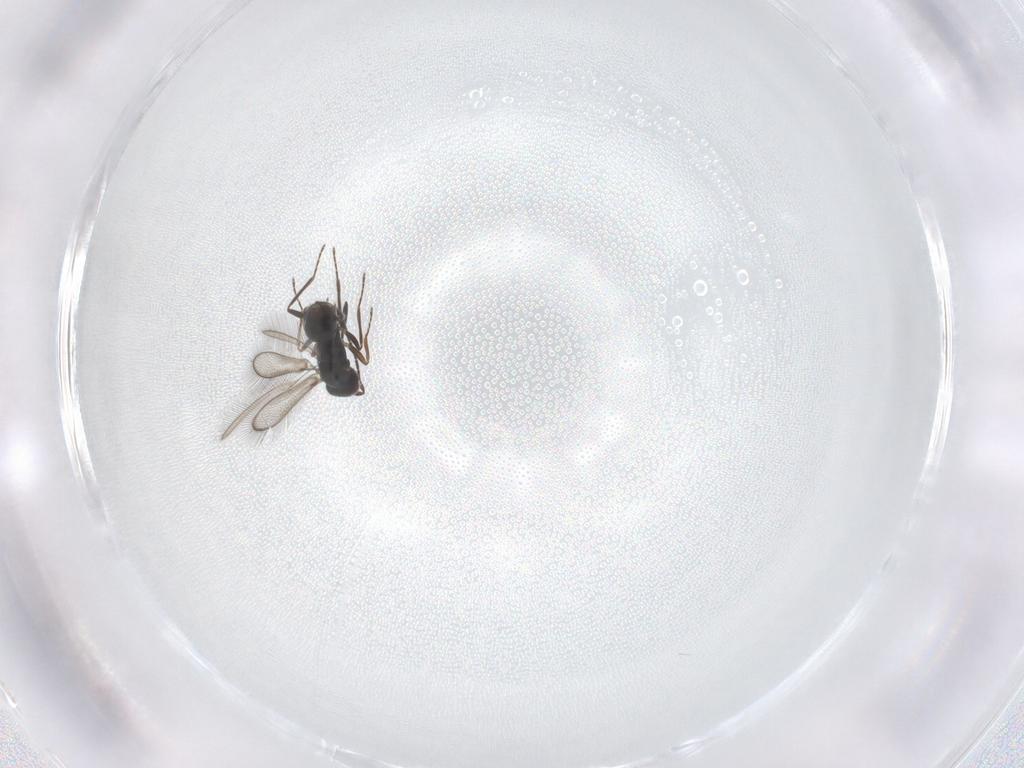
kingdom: Animalia
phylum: Arthropoda
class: Insecta
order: Hymenoptera
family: Mymaridae
